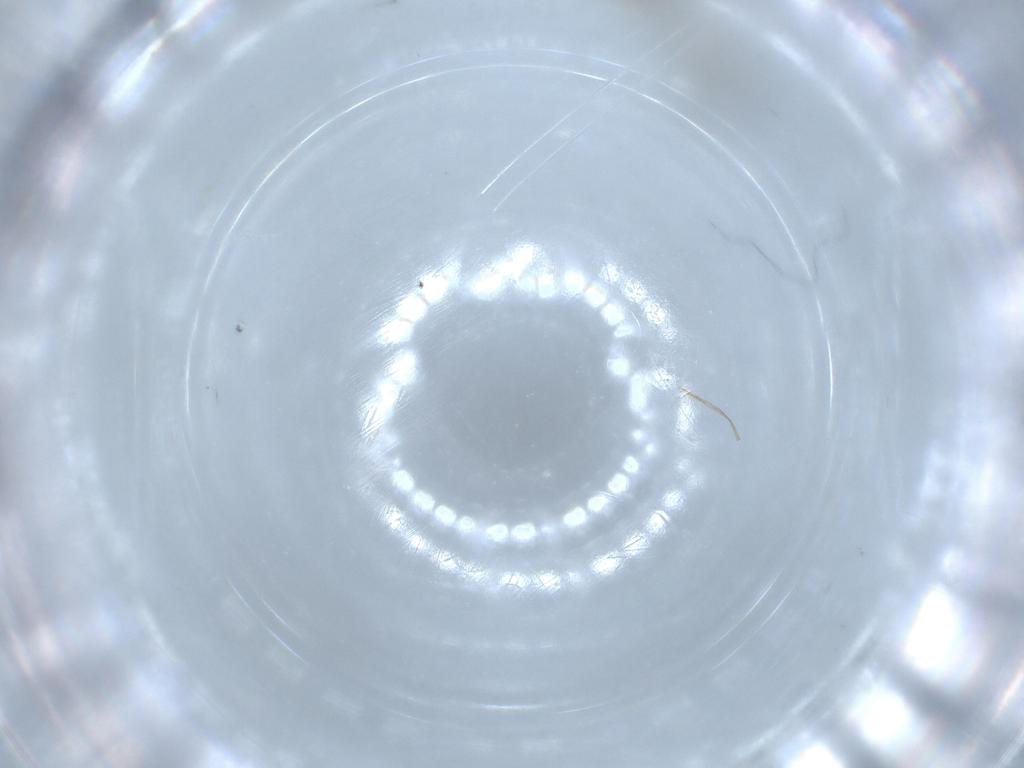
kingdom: Animalia
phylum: Arthropoda
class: Insecta
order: Diptera
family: Cecidomyiidae
